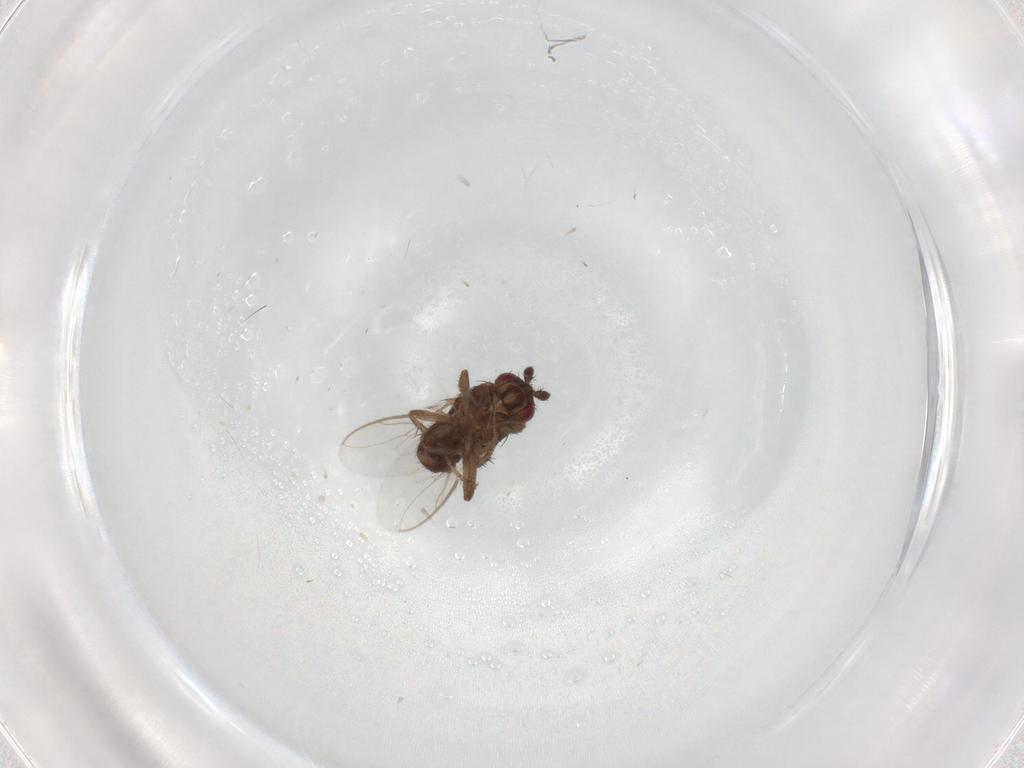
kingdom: Animalia
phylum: Arthropoda
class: Insecta
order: Diptera
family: Sphaeroceridae
